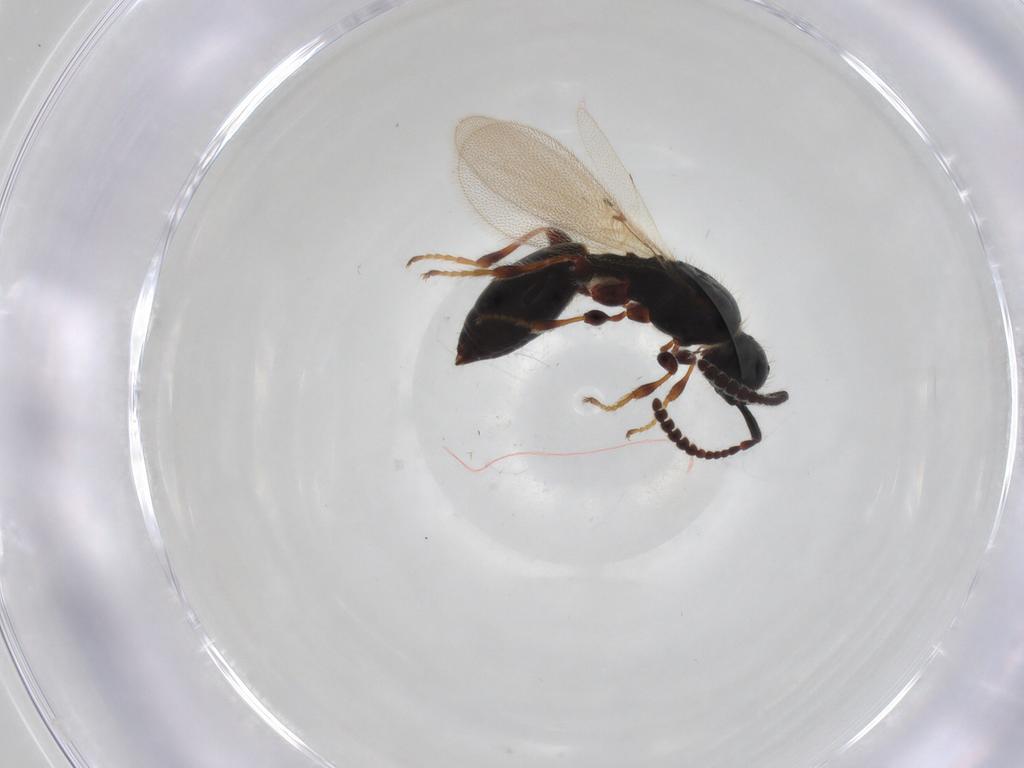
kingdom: Animalia
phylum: Arthropoda
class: Insecta
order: Hymenoptera
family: Diapriidae
